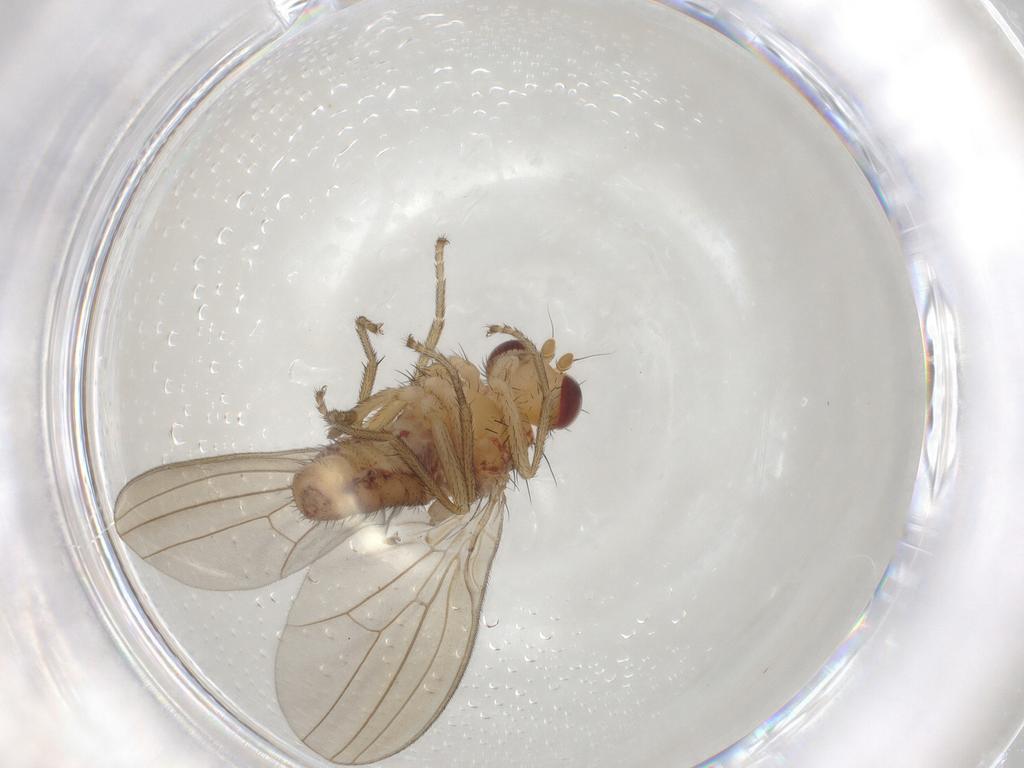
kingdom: Animalia
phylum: Arthropoda
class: Insecta
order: Diptera
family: Natalimyzidae
